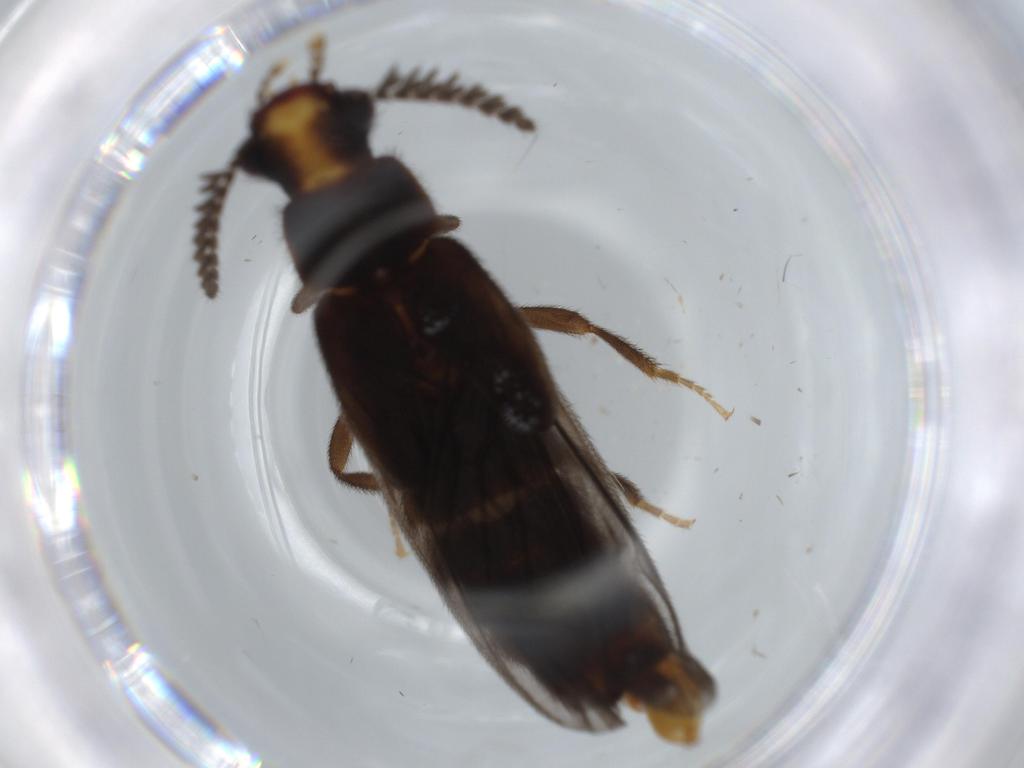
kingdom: Animalia
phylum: Arthropoda
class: Insecta
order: Coleoptera
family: Phengodidae
